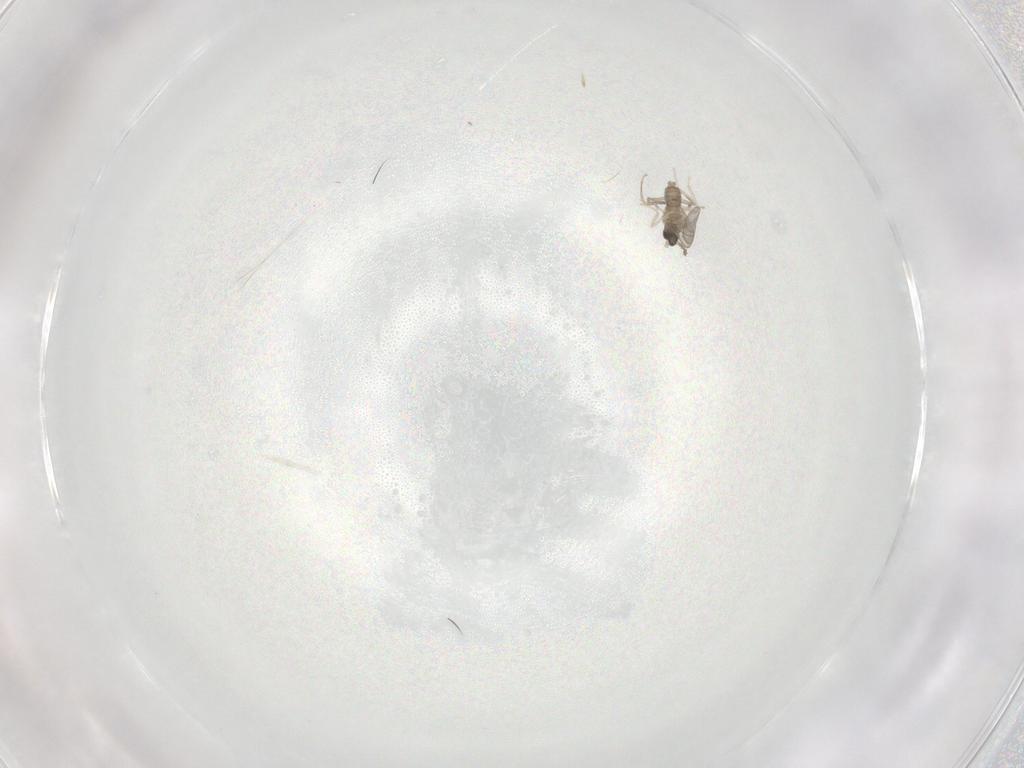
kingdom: Animalia
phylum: Arthropoda
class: Insecta
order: Diptera
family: Cecidomyiidae
